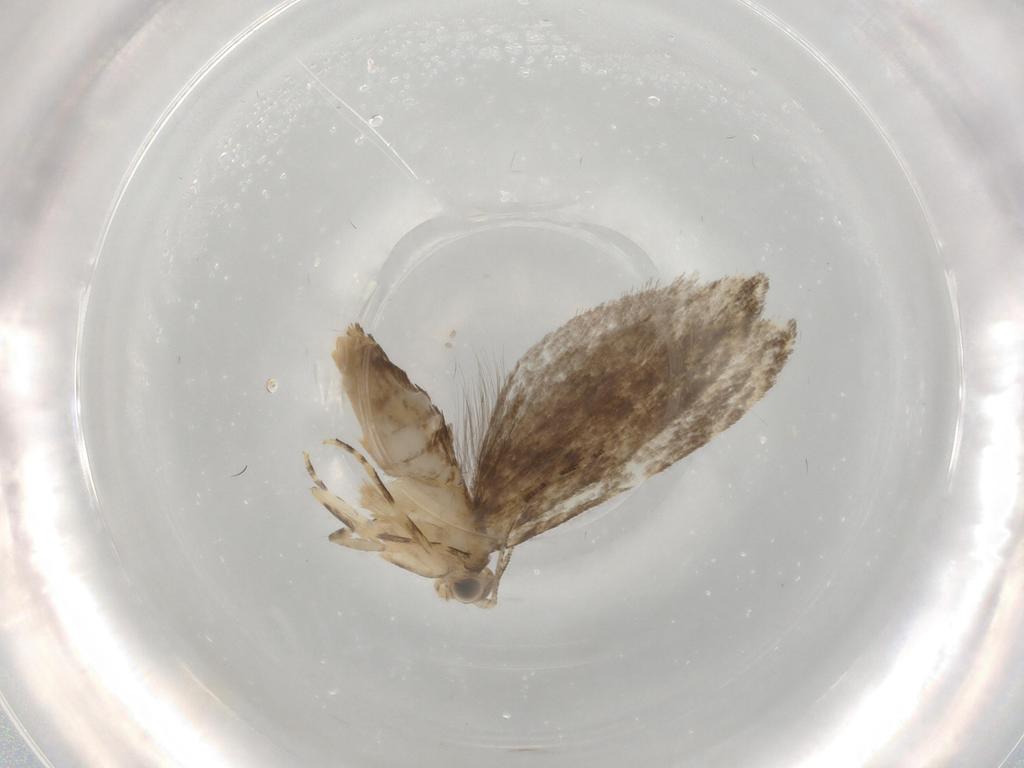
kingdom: Animalia
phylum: Arthropoda
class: Insecta
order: Lepidoptera
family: Tineidae
